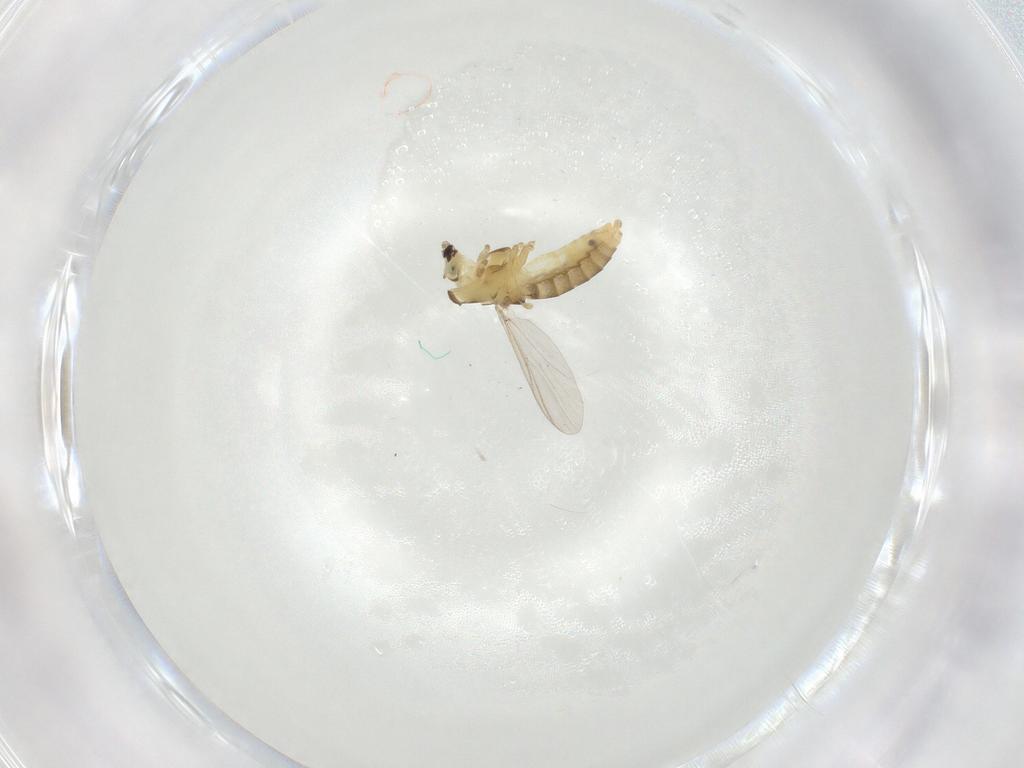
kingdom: Animalia
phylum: Arthropoda
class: Insecta
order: Diptera
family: Chironomidae
